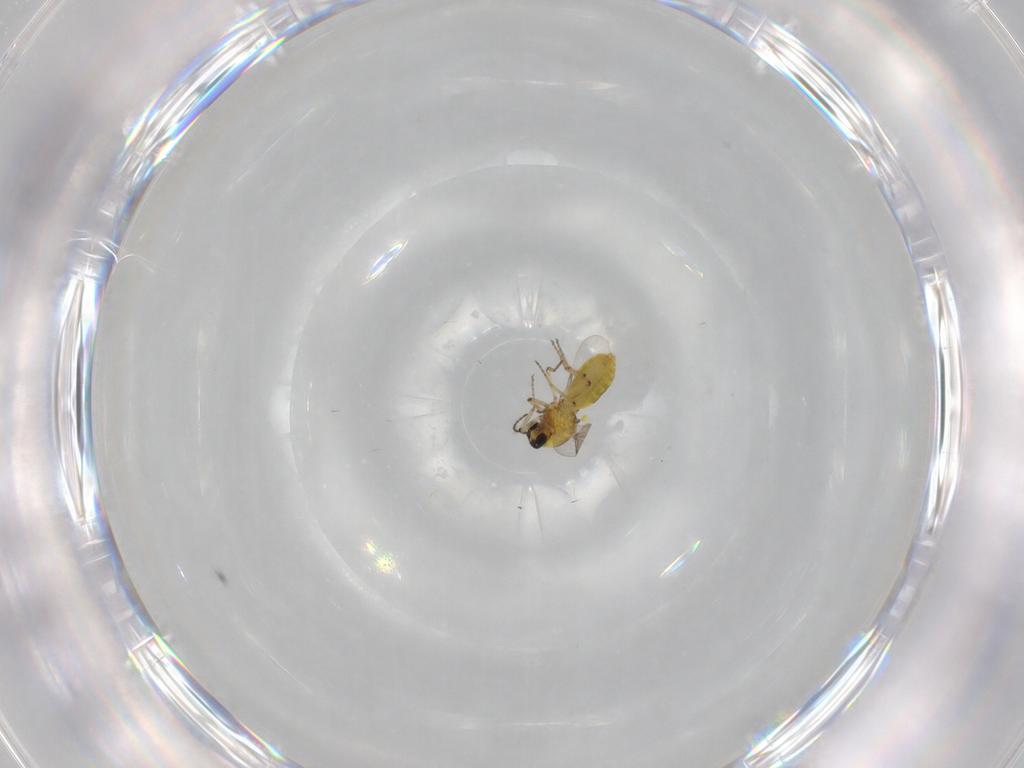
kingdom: Animalia
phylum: Arthropoda
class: Insecta
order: Diptera
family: Ceratopogonidae
